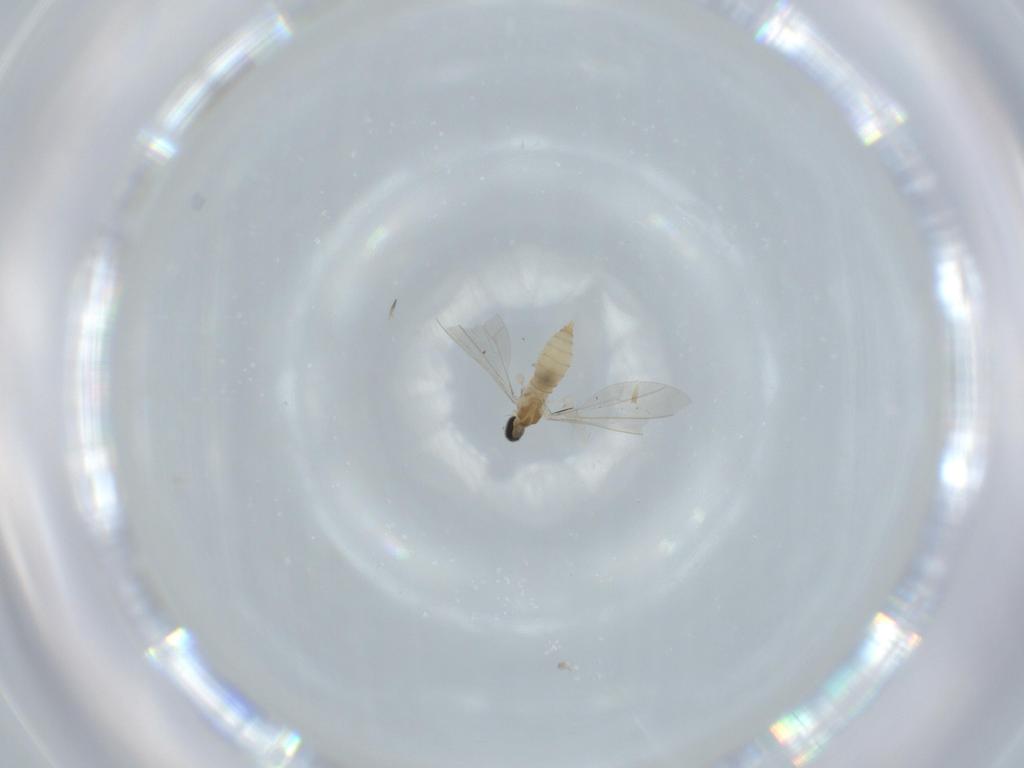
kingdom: Animalia
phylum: Arthropoda
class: Insecta
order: Diptera
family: Cecidomyiidae
